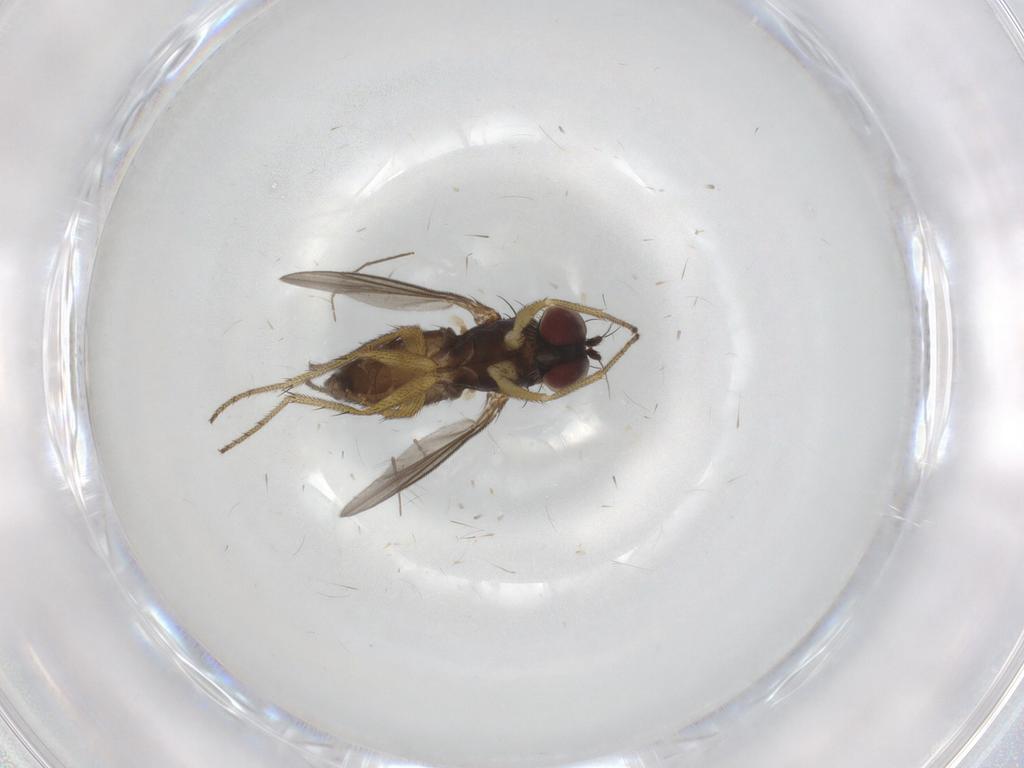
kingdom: Animalia
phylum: Arthropoda
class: Insecta
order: Diptera
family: Chironomidae
